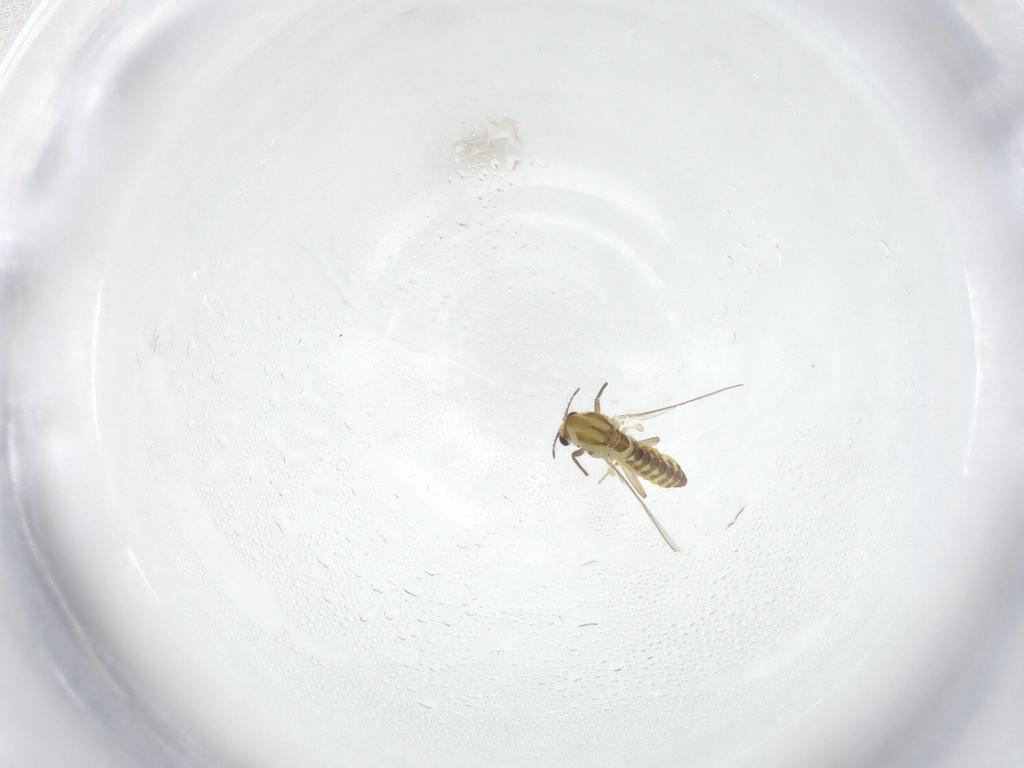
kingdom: Animalia
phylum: Arthropoda
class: Insecta
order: Diptera
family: Chironomidae
